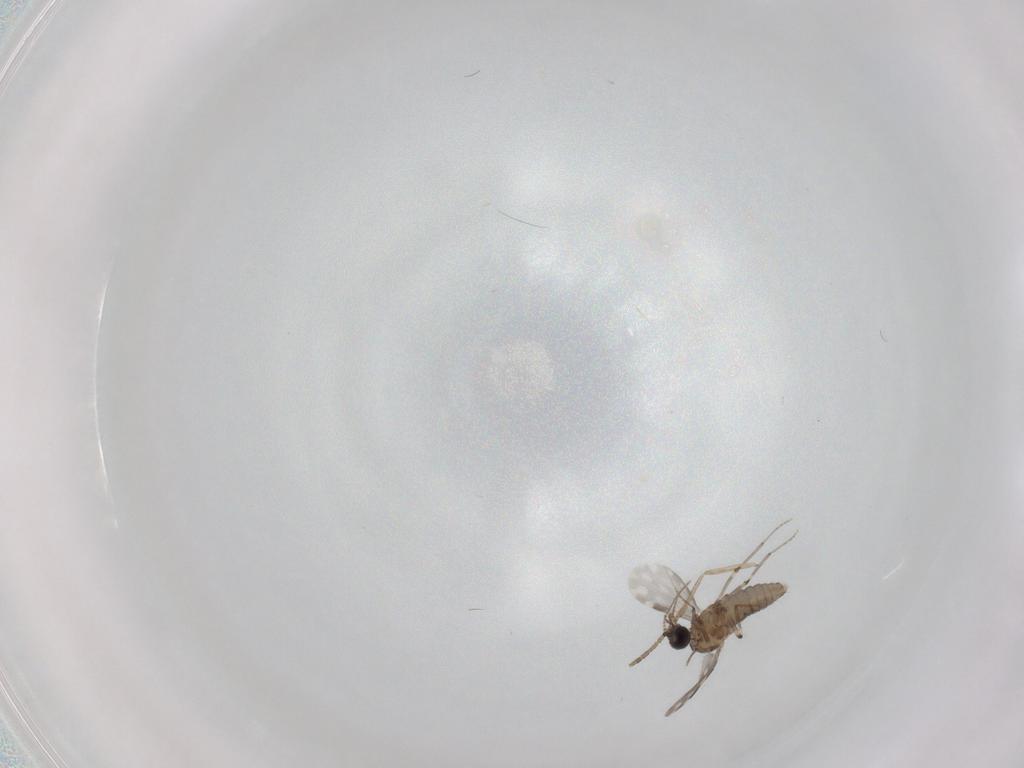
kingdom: Animalia
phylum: Arthropoda
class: Insecta
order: Diptera
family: Ceratopogonidae
